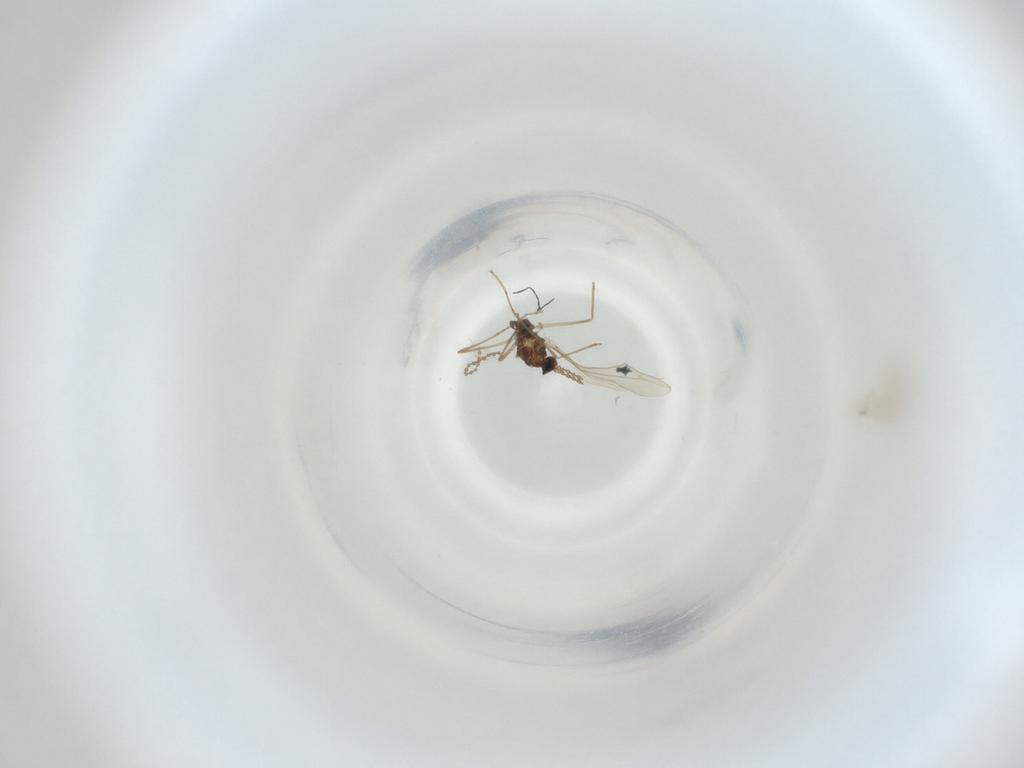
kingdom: Animalia
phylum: Arthropoda
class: Insecta
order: Diptera
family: Cecidomyiidae
